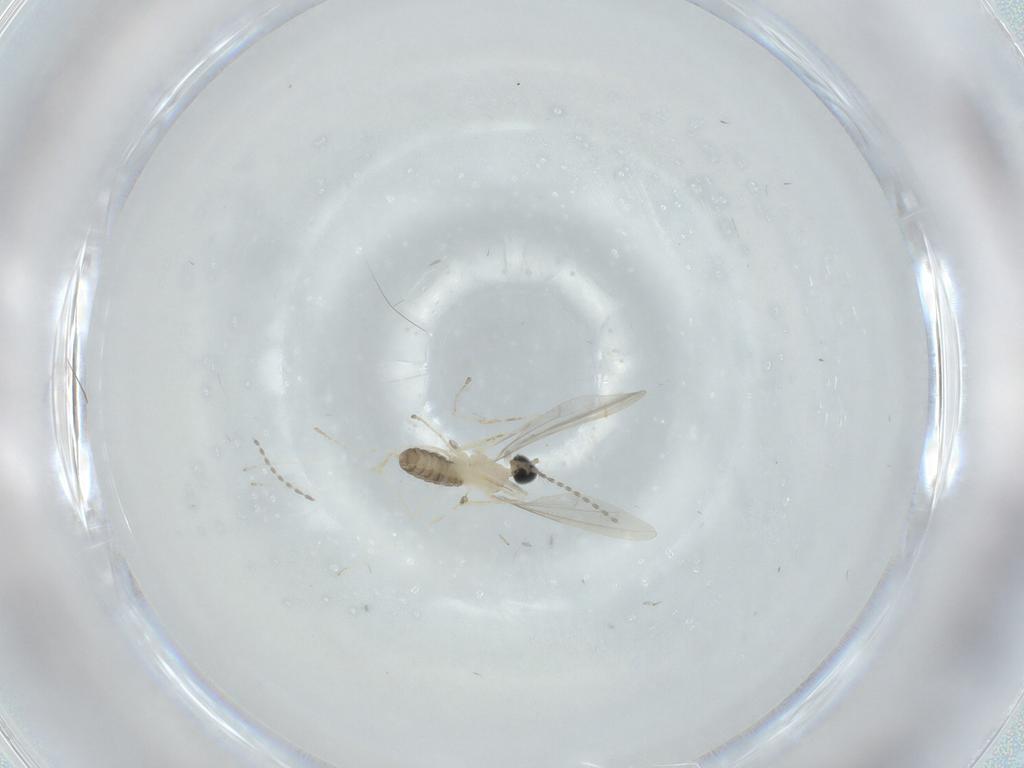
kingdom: Animalia
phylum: Arthropoda
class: Insecta
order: Diptera
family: Cecidomyiidae
